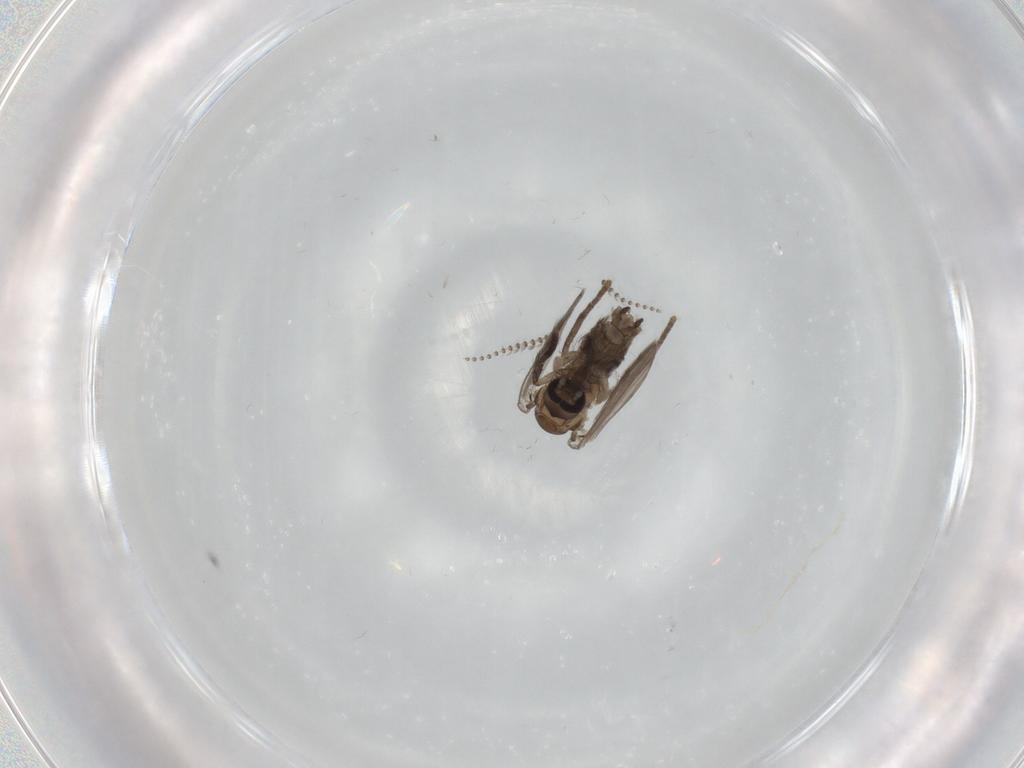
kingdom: Animalia
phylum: Arthropoda
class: Insecta
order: Diptera
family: Psychodidae
